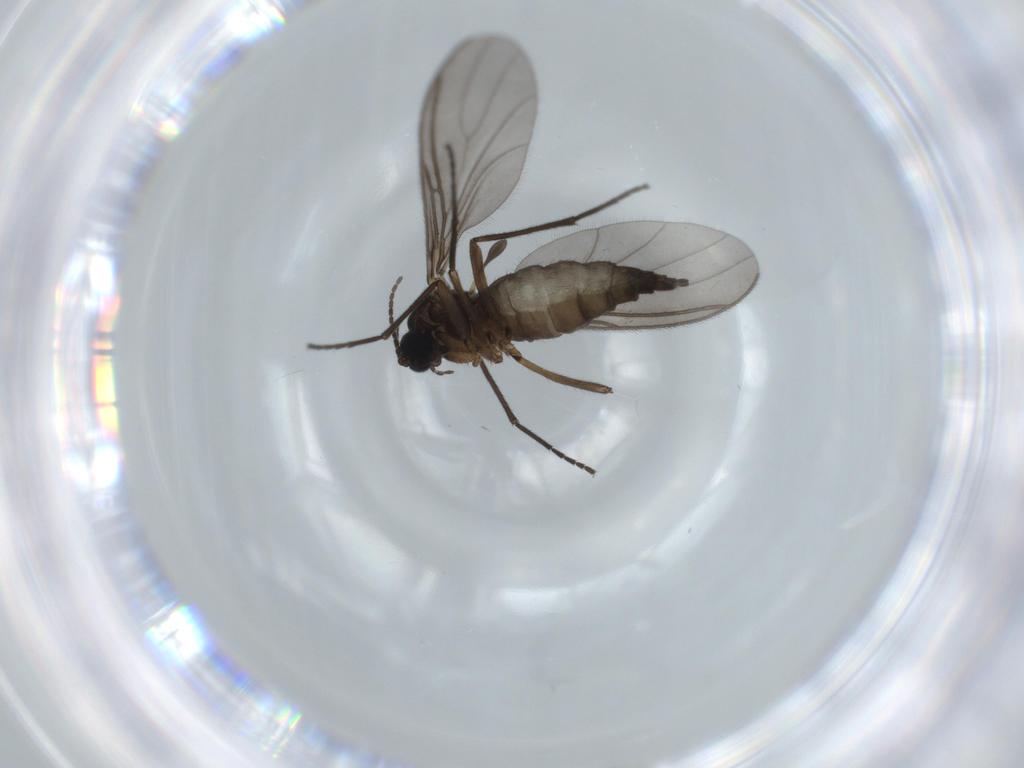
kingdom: Animalia
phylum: Arthropoda
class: Insecta
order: Diptera
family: Sciaridae
